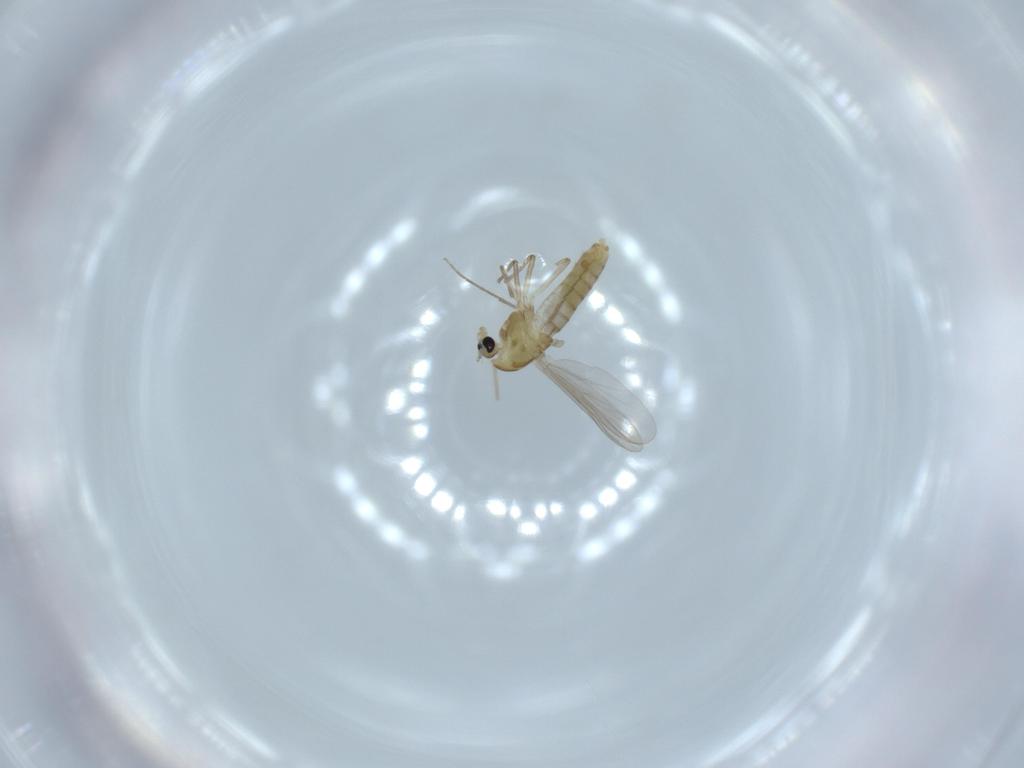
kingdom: Animalia
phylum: Arthropoda
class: Insecta
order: Diptera
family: Chironomidae
